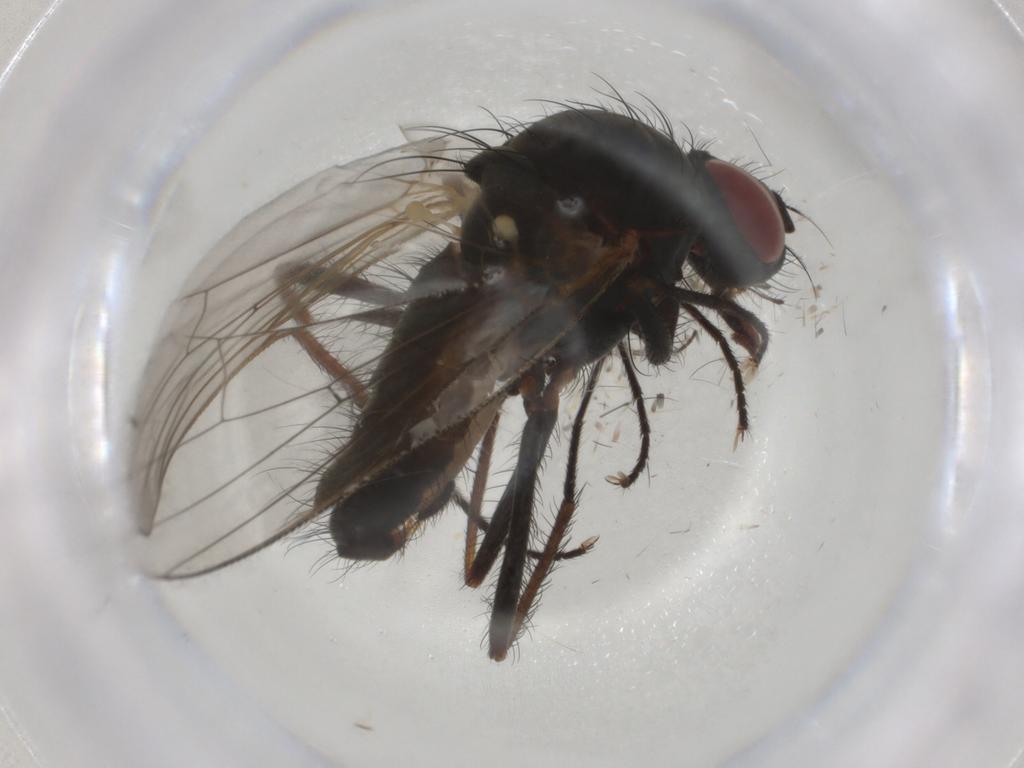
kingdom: Animalia
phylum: Arthropoda
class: Insecta
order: Diptera
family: Anthomyiidae
